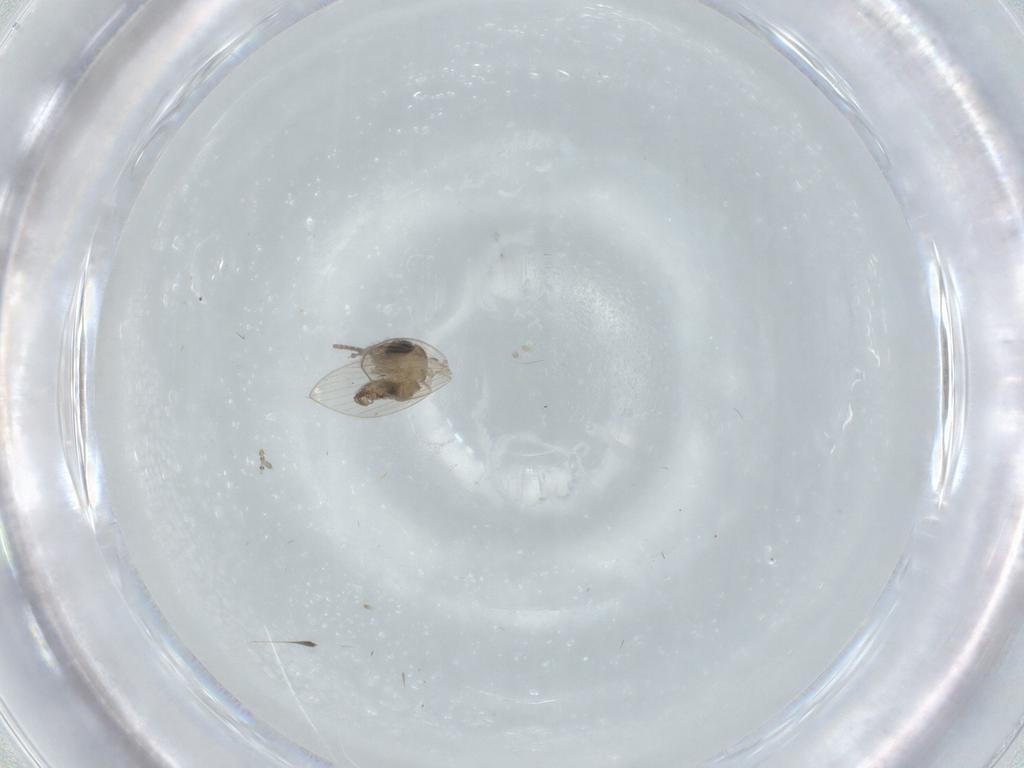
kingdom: Animalia
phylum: Arthropoda
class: Insecta
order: Diptera
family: Psychodidae
